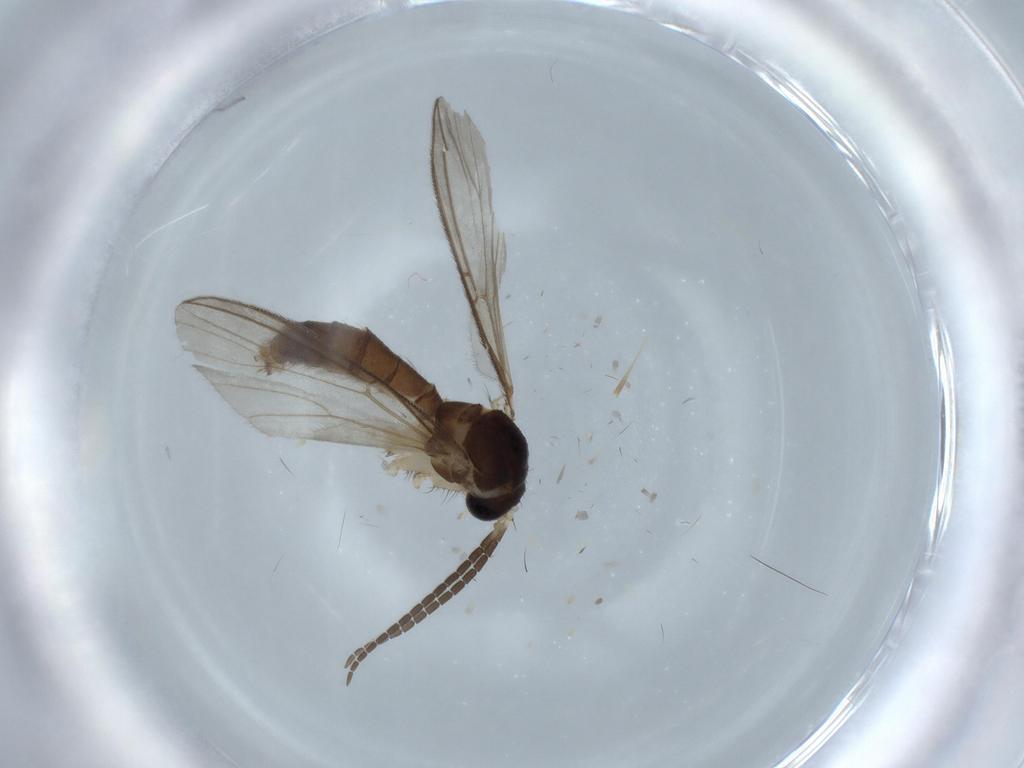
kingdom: Animalia
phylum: Arthropoda
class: Insecta
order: Diptera
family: Chloropidae
